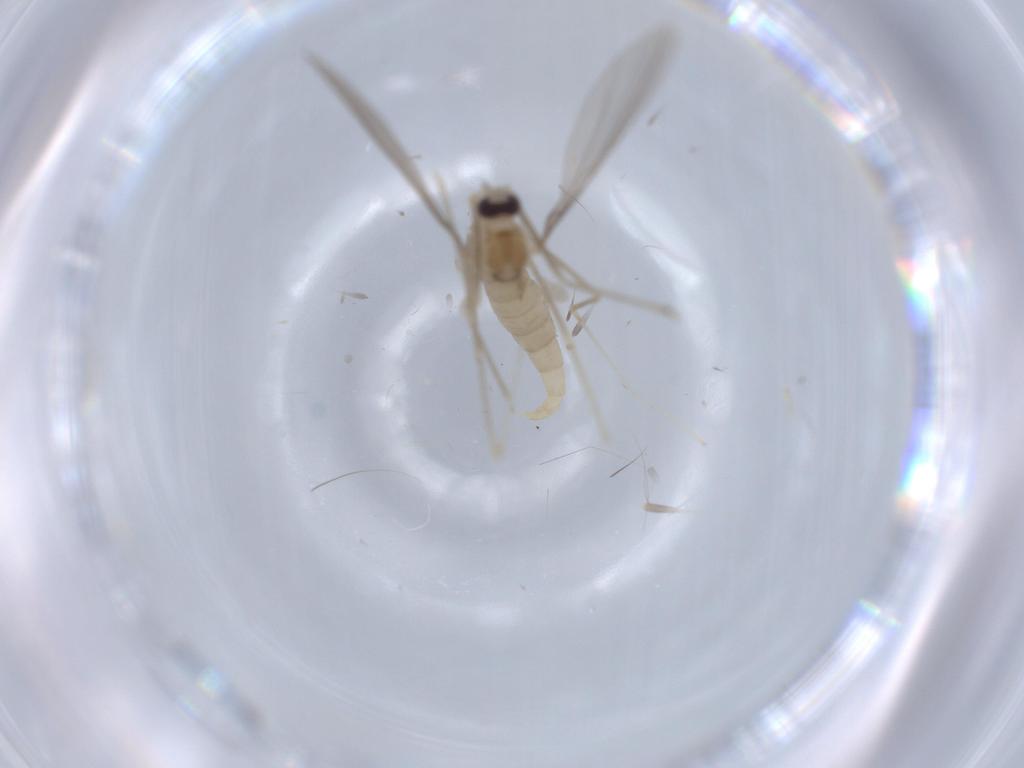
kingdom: Animalia
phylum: Arthropoda
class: Insecta
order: Diptera
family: Cecidomyiidae
